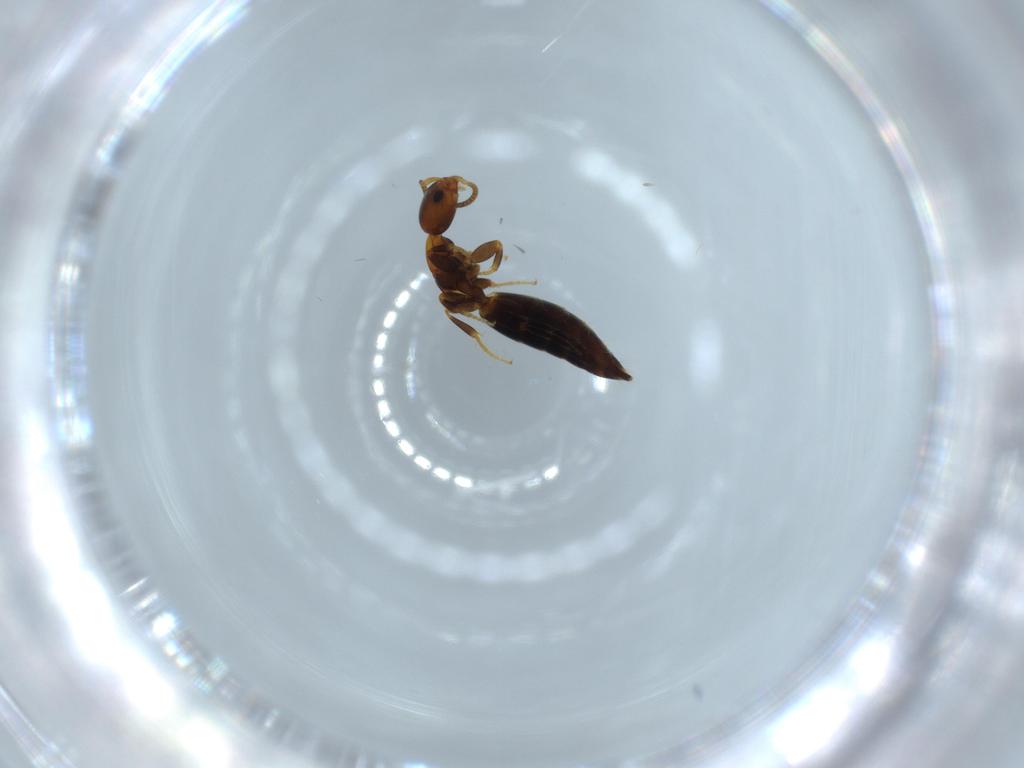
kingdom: Animalia
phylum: Arthropoda
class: Insecta
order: Hymenoptera
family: Bethylidae
